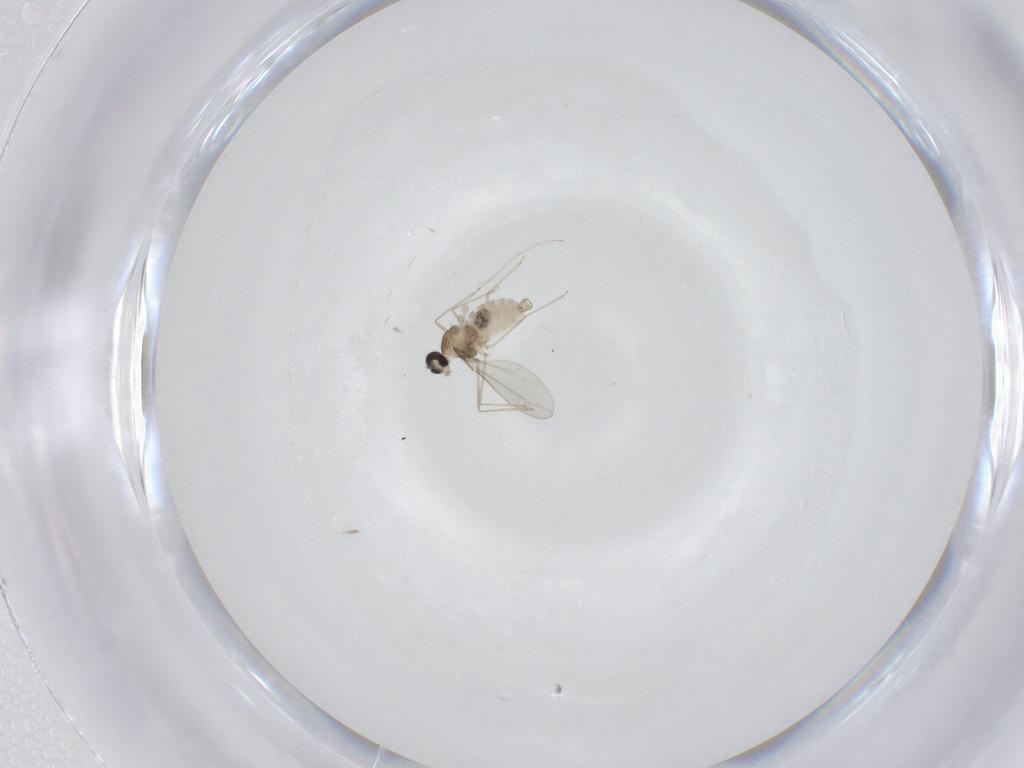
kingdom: Animalia
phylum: Arthropoda
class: Insecta
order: Diptera
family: Cecidomyiidae
